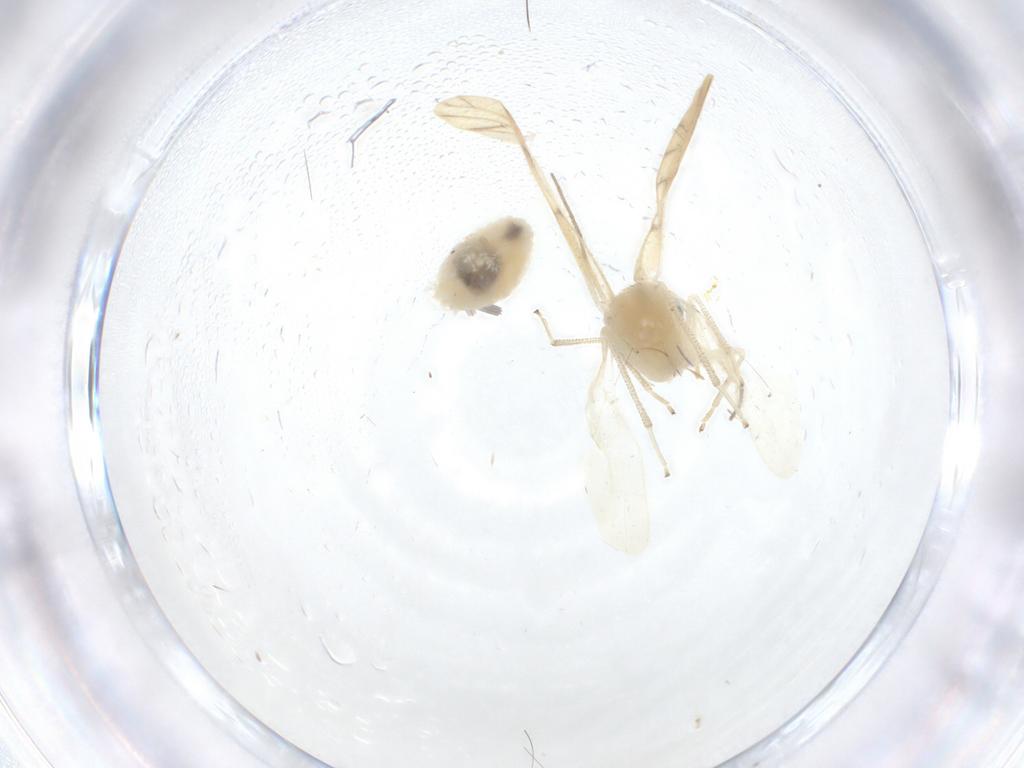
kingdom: Animalia
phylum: Arthropoda
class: Insecta
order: Psocodea
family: Caeciliusidae
